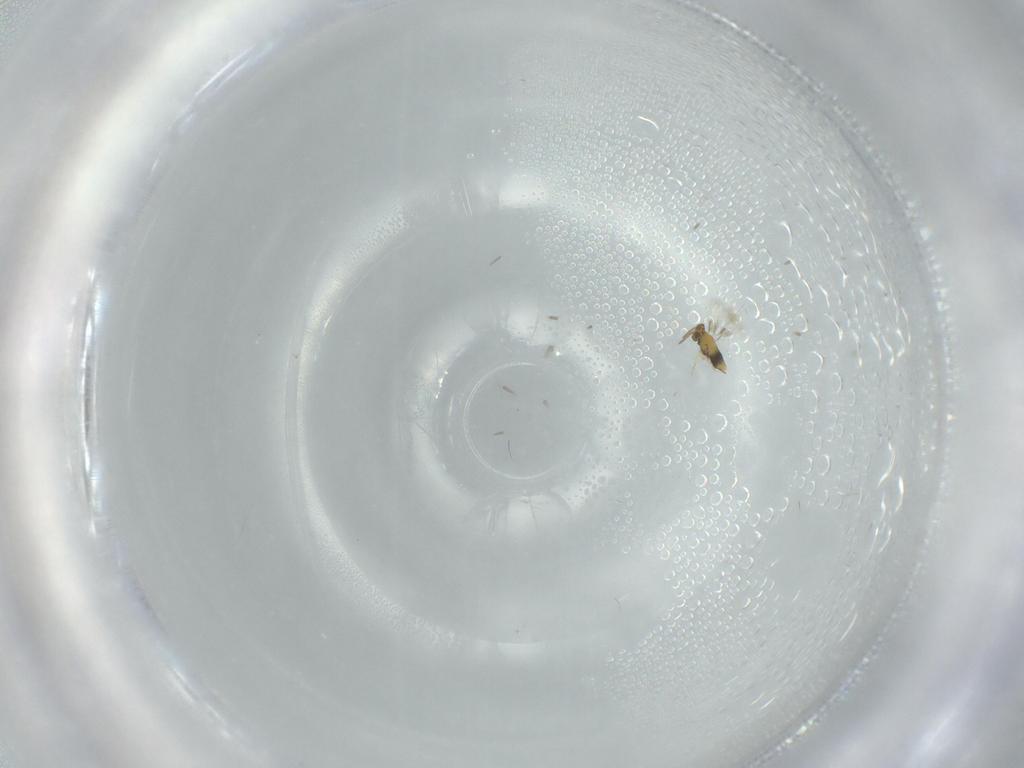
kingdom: Animalia
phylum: Arthropoda
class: Insecta
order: Hymenoptera
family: Aphelinidae
